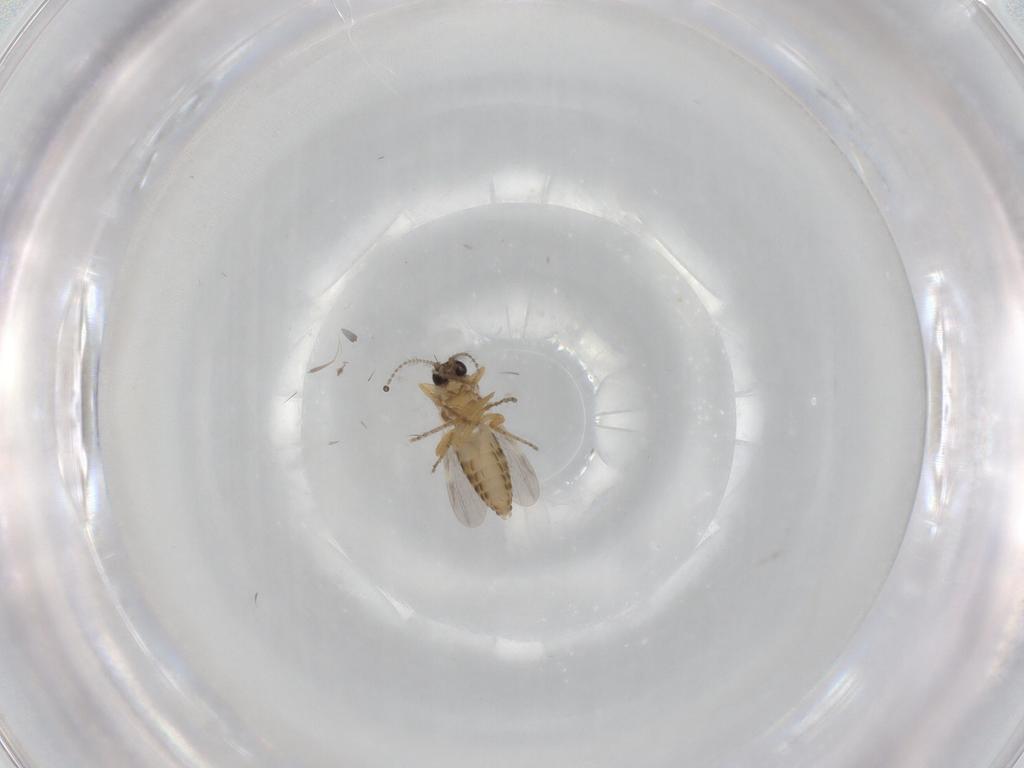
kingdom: Animalia
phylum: Arthropoda
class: Insecta
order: Diptera
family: Ceratopogonidae
